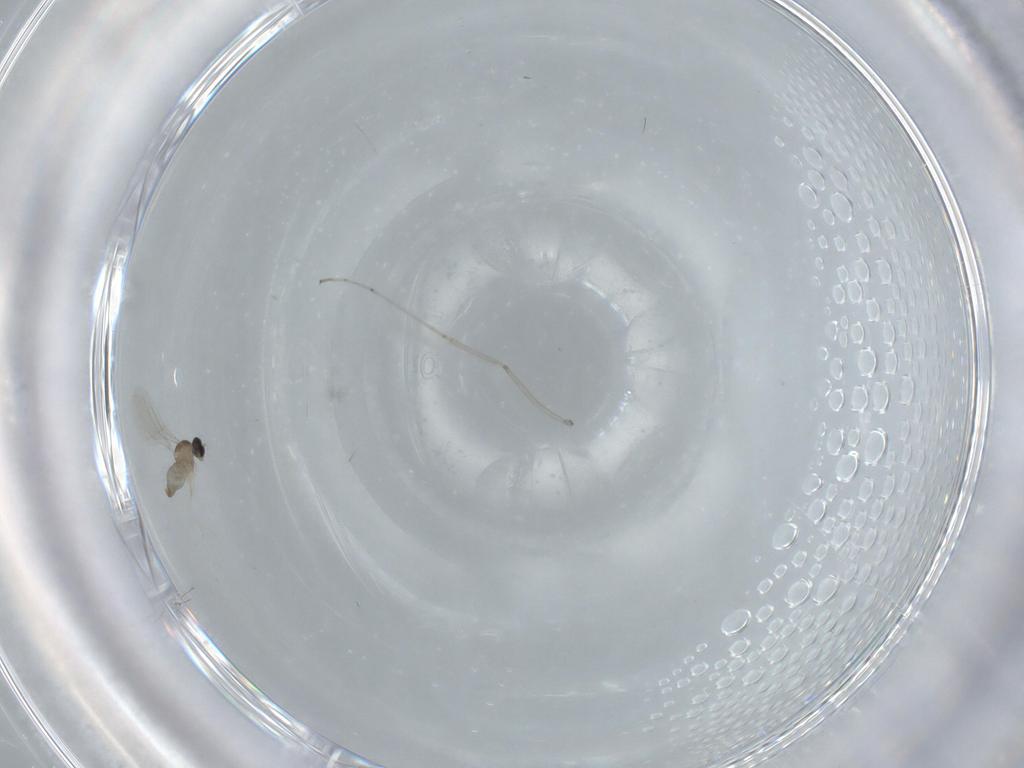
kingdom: Animalia
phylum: Arthropoda
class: Insecta
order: Diptera
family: Cecidomyiidae
